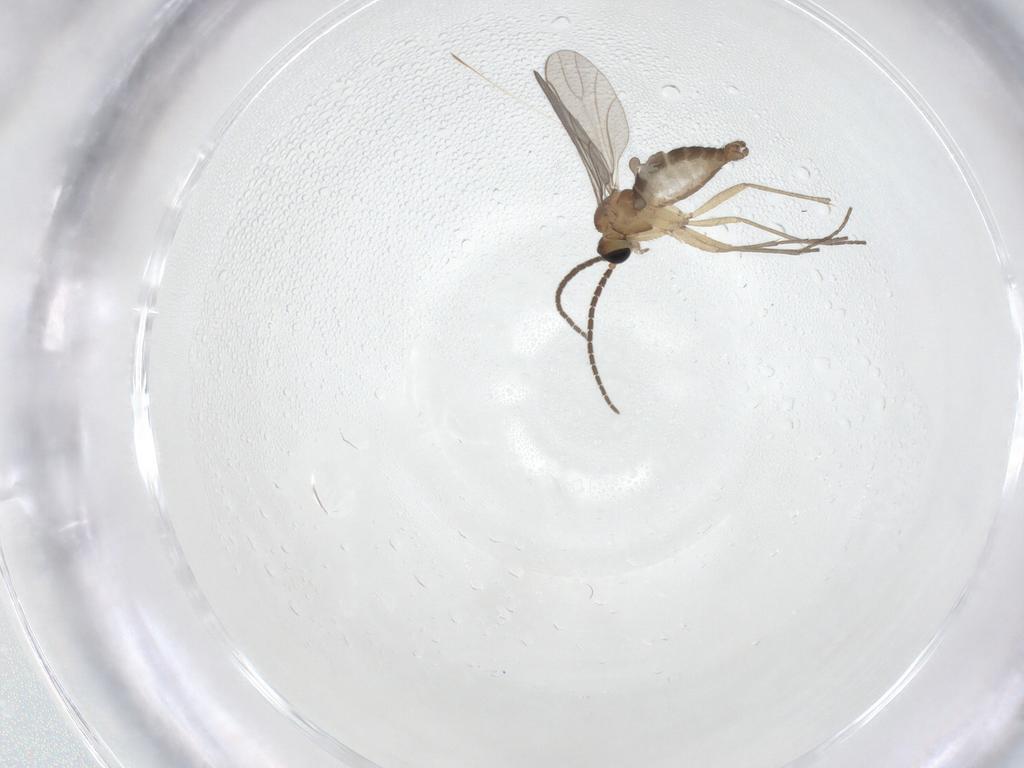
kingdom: Animalia
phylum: Arthropoda
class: Insecta
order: Diptera
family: Sciaridae
